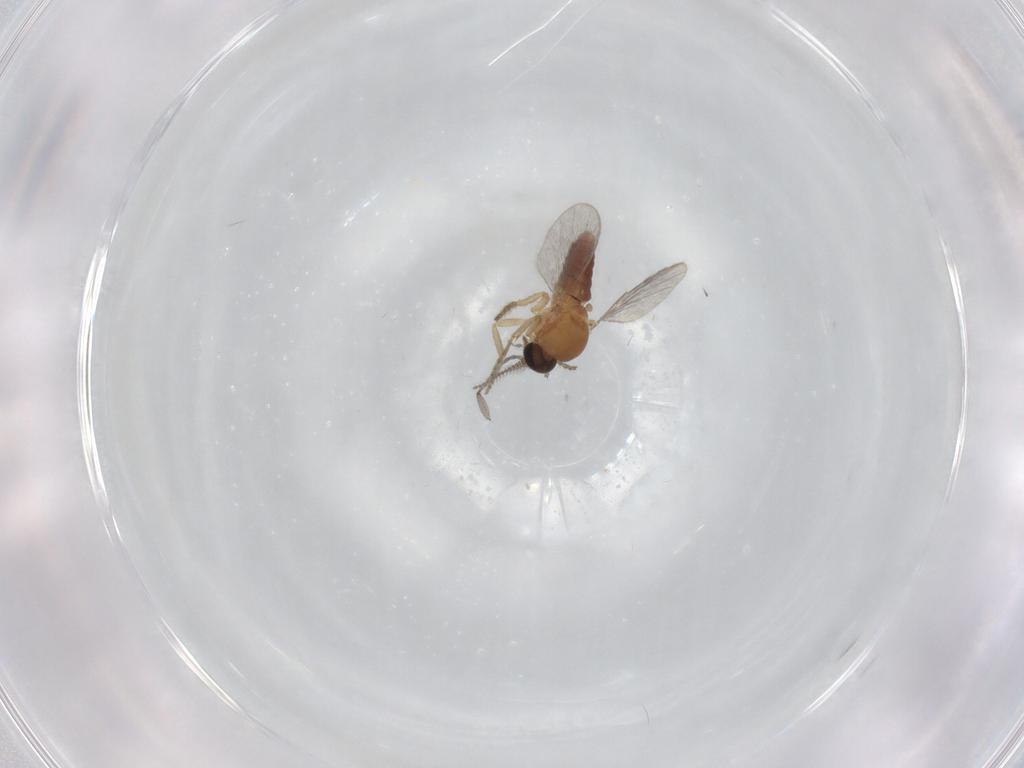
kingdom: Animalia
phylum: Arthropoda
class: Insecta
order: Diptera
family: Ceratopogonidae
